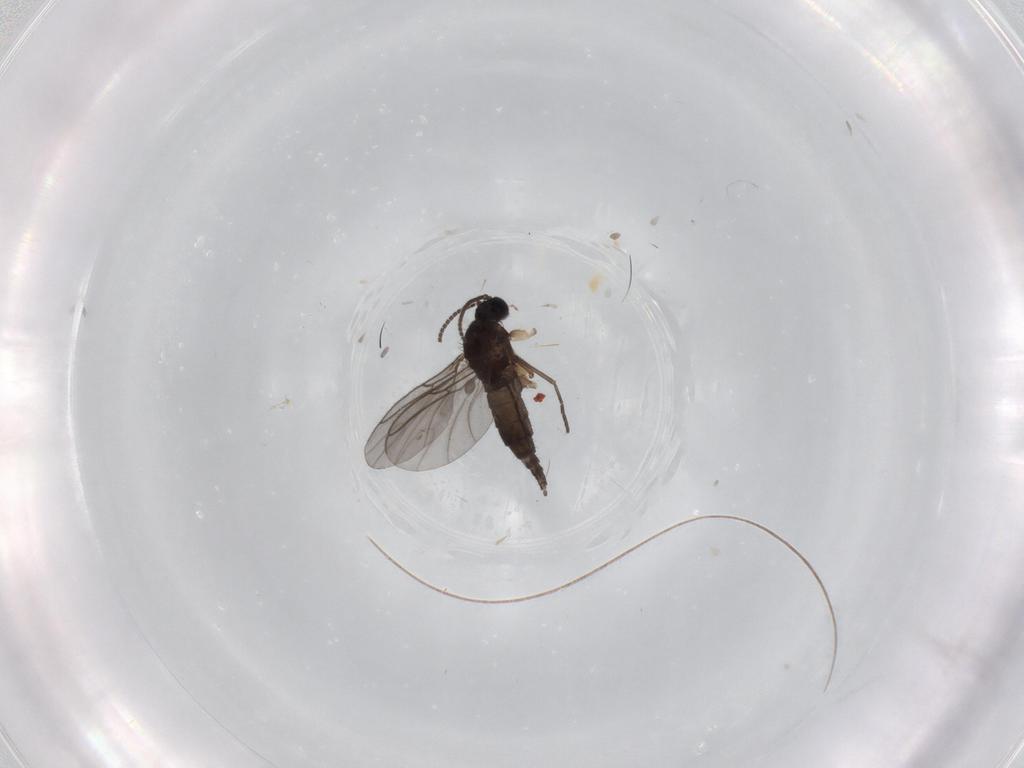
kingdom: Animalia
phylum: Arthropoda
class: Insecta
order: Diptera
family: Sciaridae
